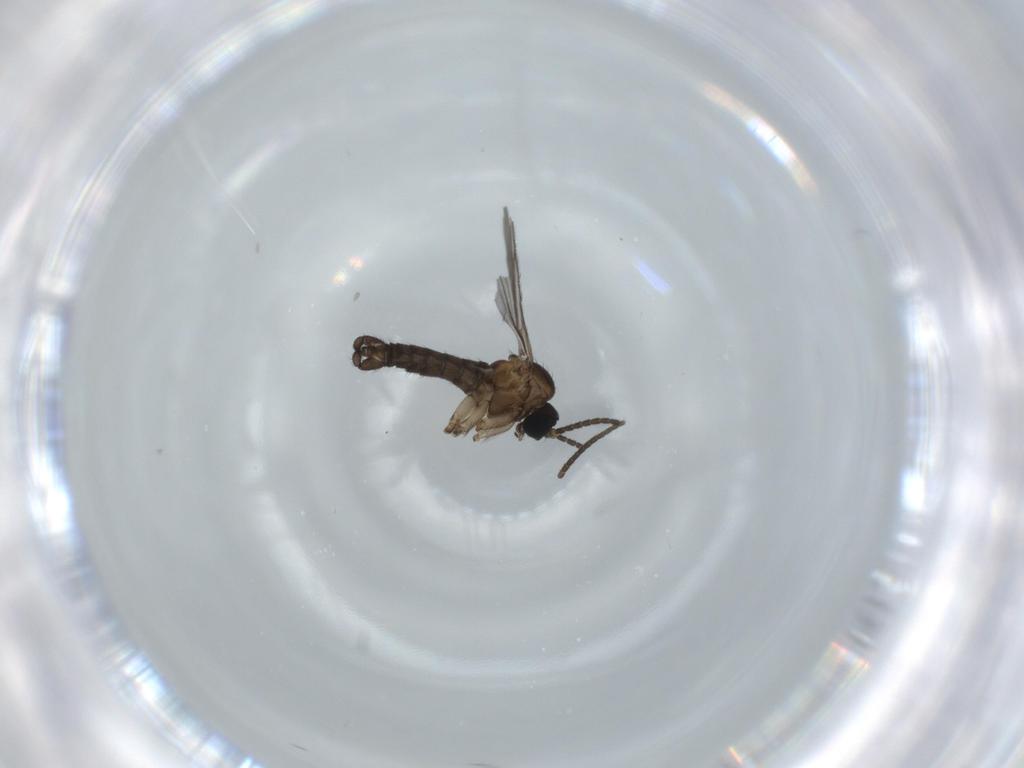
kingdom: Animalia
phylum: Arthropoda
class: Insecta
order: Diptera
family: Sciaridae
